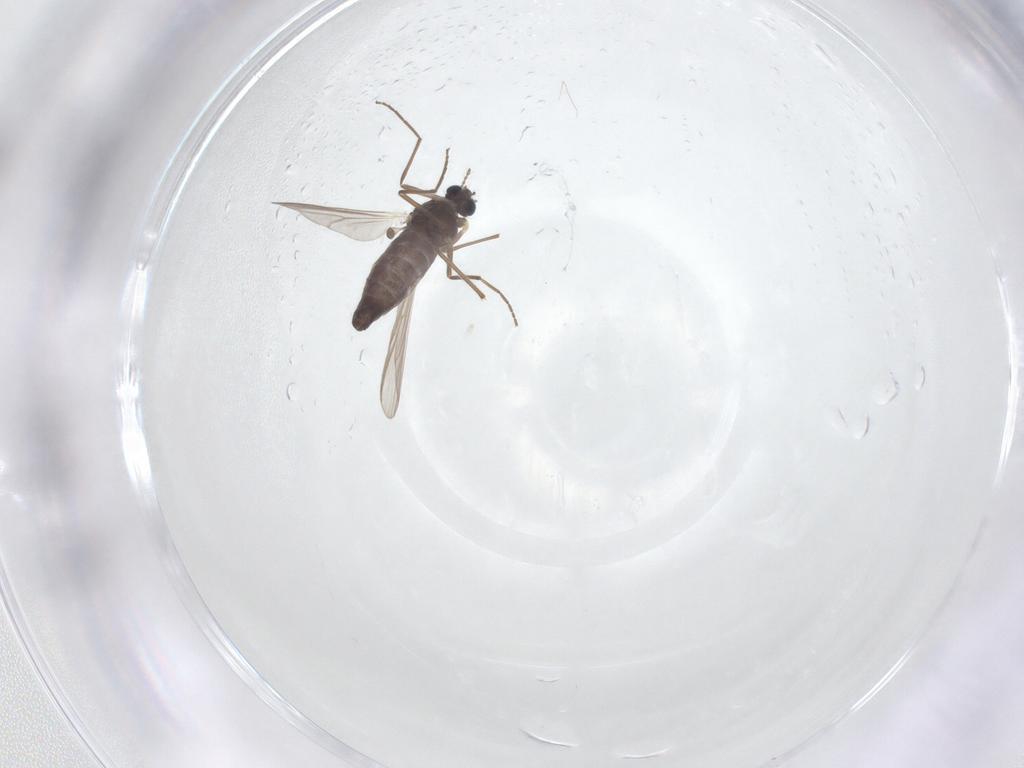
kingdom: Animalia
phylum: Arthropoda
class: Insecta
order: Diptera
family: Chironomidae
